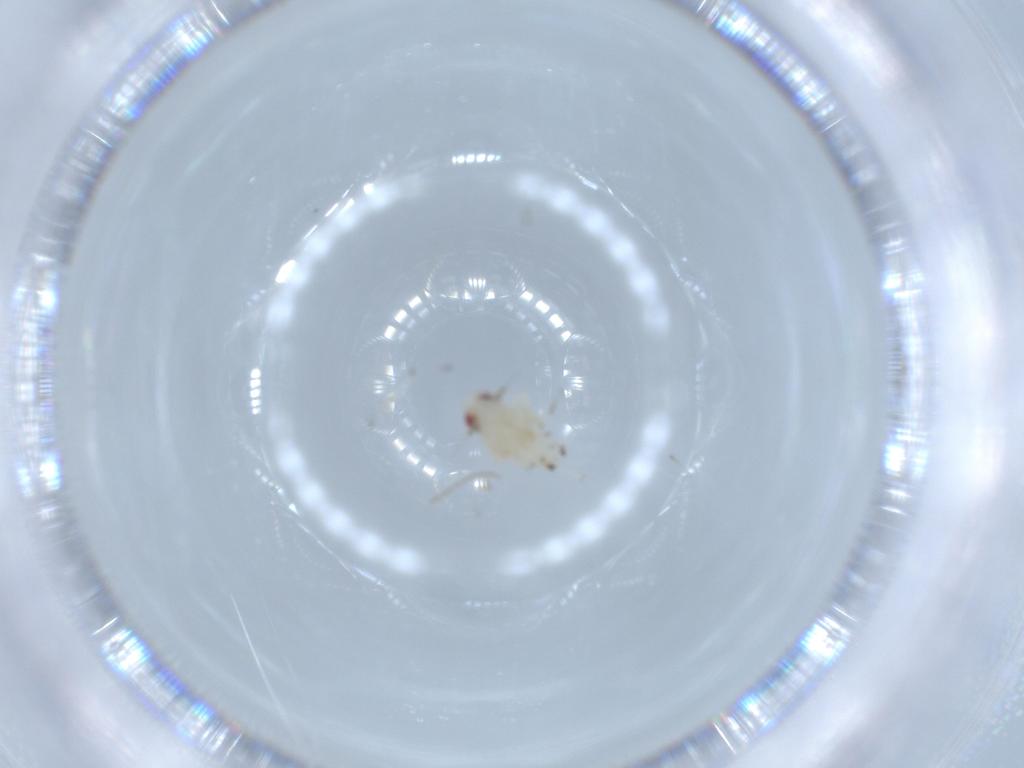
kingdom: Animalia
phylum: Arthropoda
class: Insecta
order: Hemiptera
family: Nogodinidae
